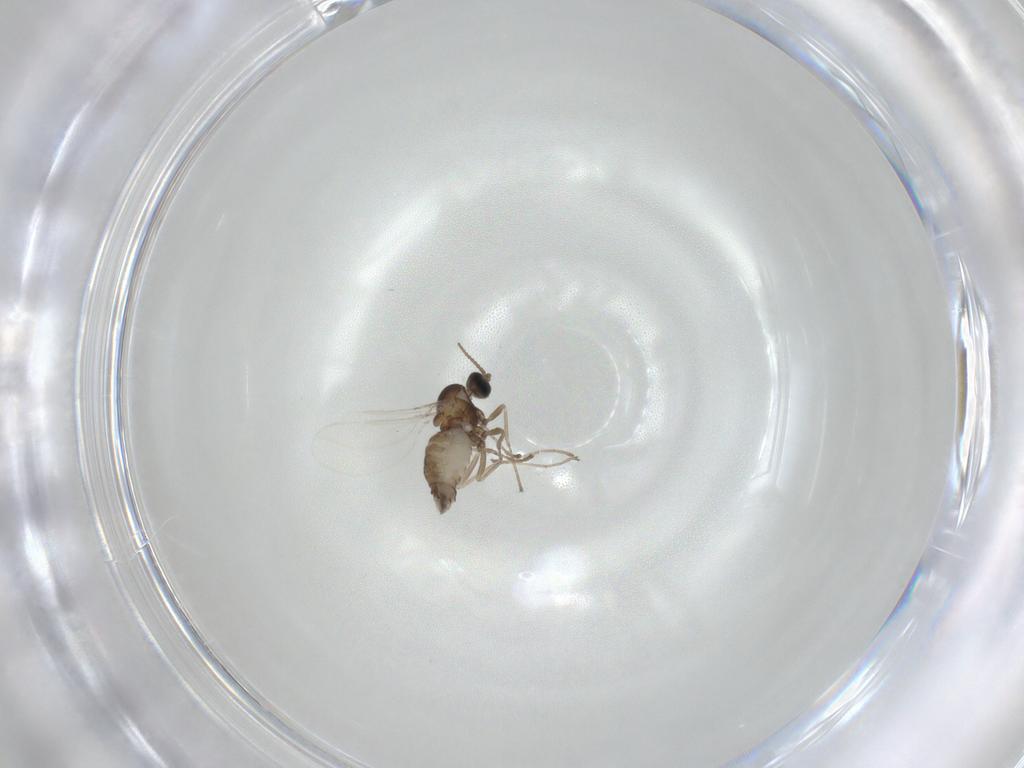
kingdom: Animalia
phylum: Arthropoda
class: Insecta
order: Diptera
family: Cecidomyiidae
